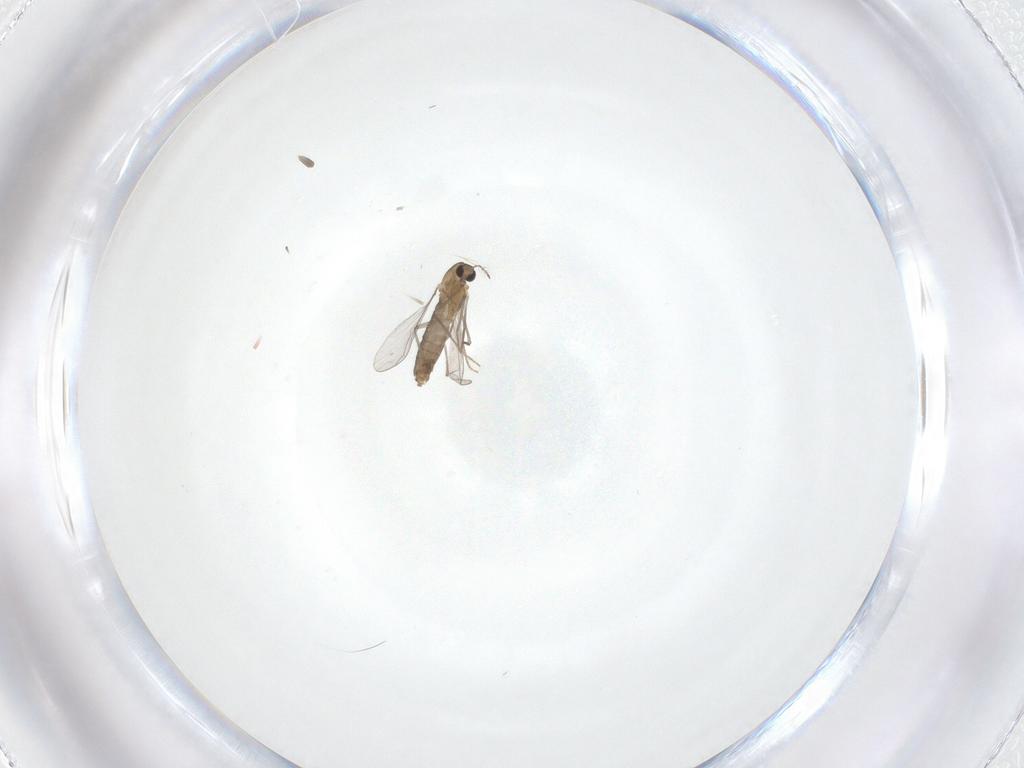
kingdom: Animalia
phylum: Arthropoda
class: Insecta
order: Diptera
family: Chironomidae
